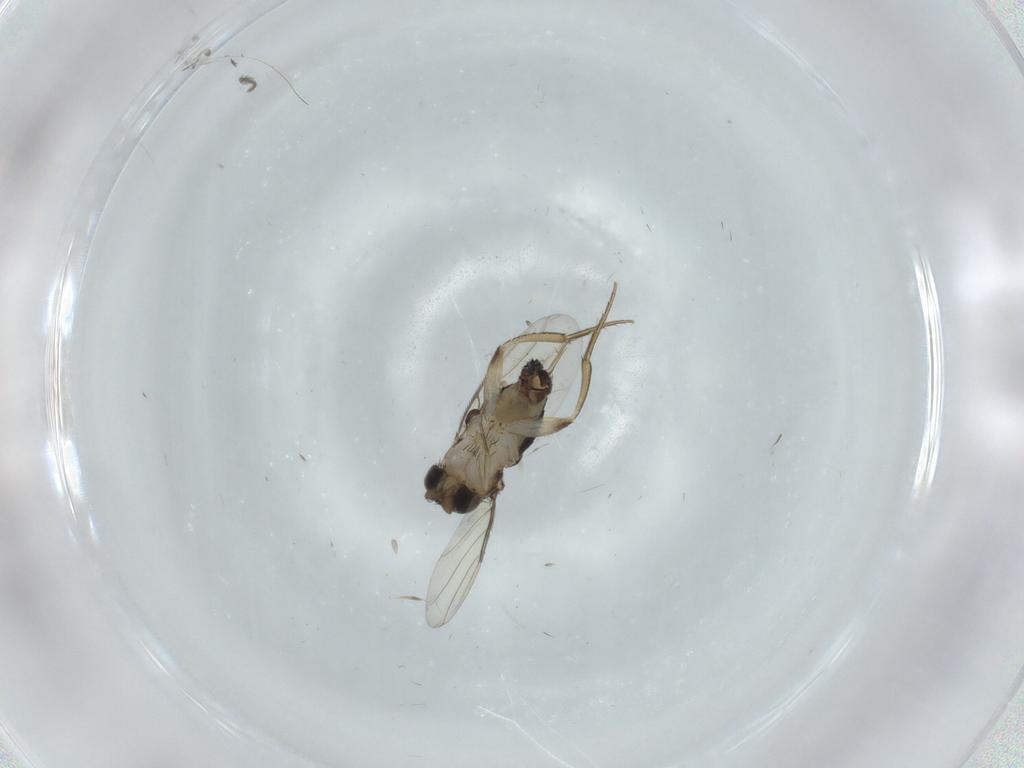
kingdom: Animalia
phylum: Arthropoda
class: Insecta
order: Diptera
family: Phoridae
